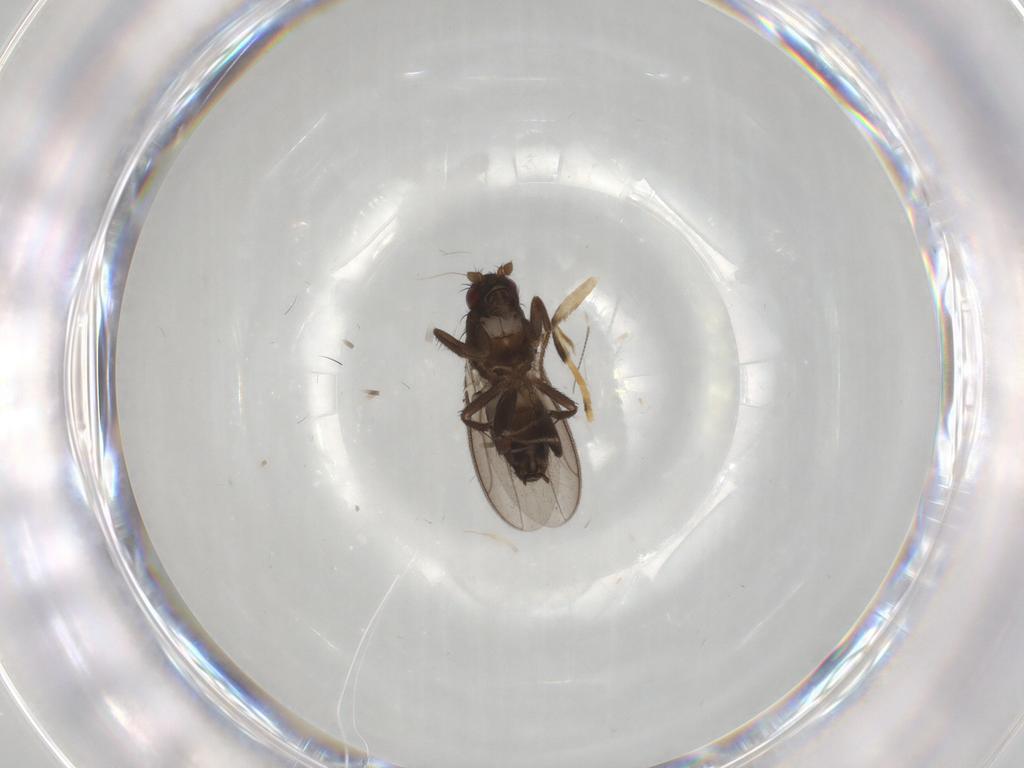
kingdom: Animalia
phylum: Arthropoda
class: Insecta
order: Diptera
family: Sphaeroceridae
